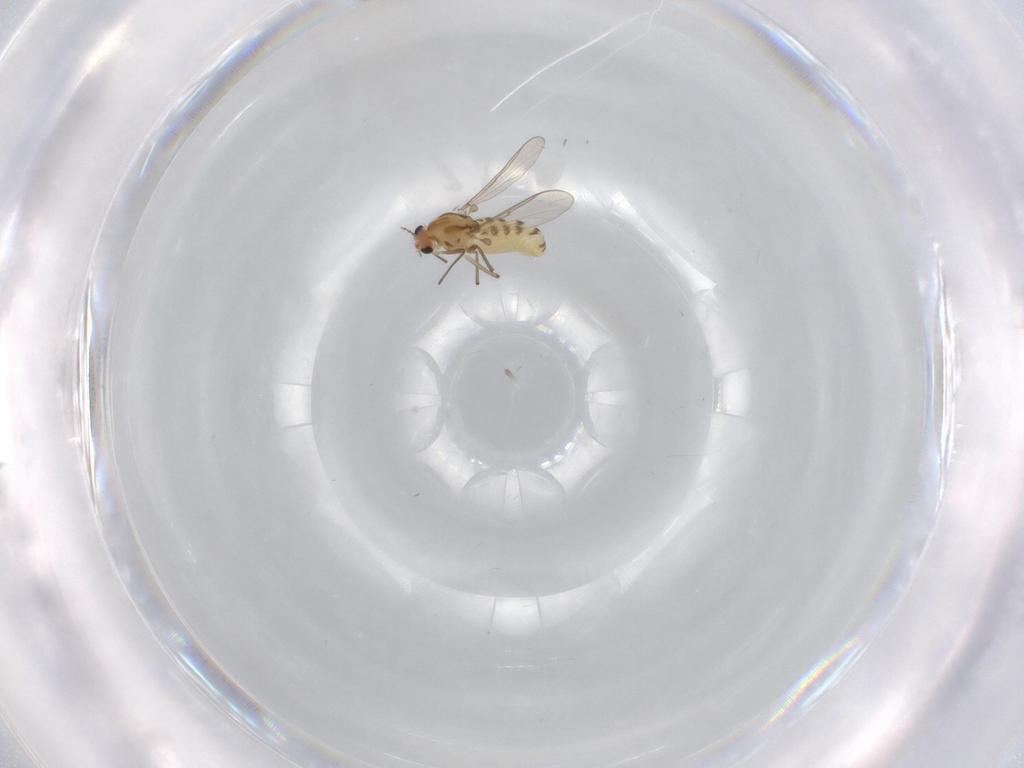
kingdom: Animalia
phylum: Arthropoda
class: Insecta
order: Diptera
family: Chironomidae
